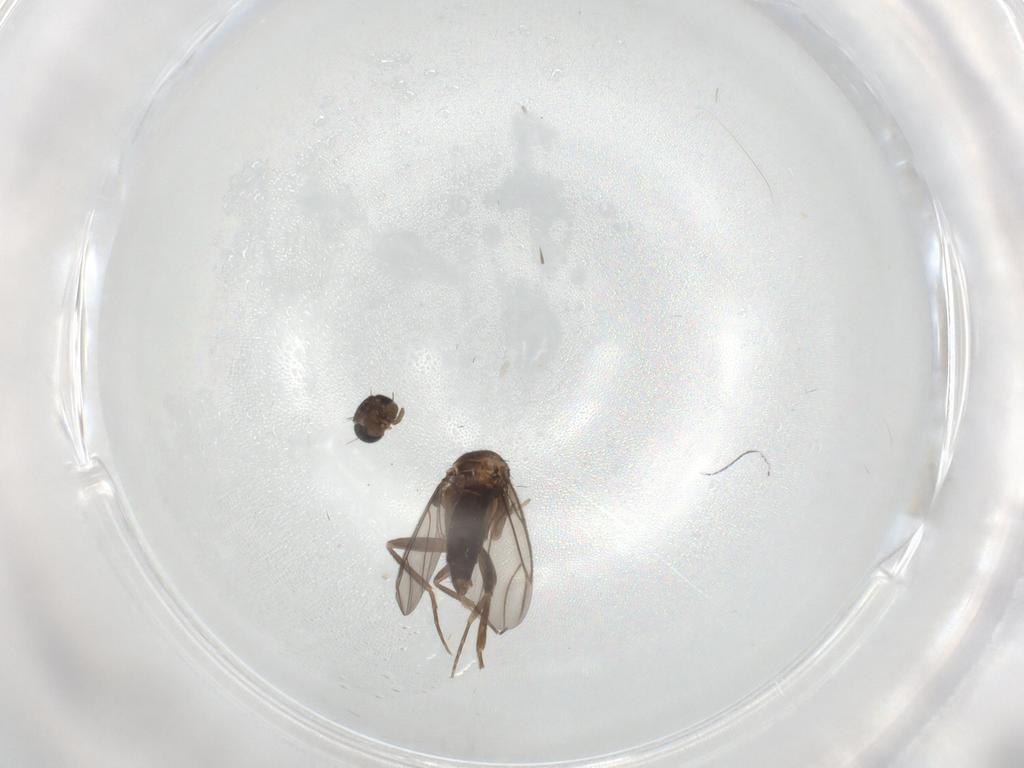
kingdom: Animalia
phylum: Arthropoda
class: Insecta
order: Diptera
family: Phoridae
